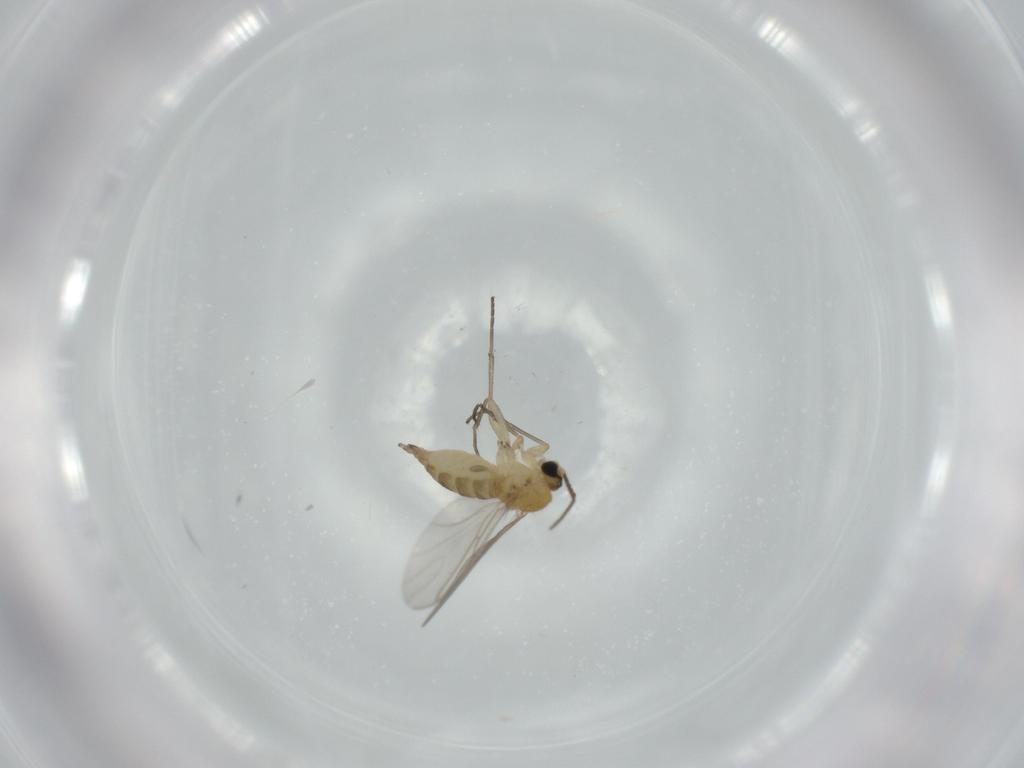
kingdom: Animalia
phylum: Arthropoda
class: Insecta
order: Diptera
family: Sciaridae
